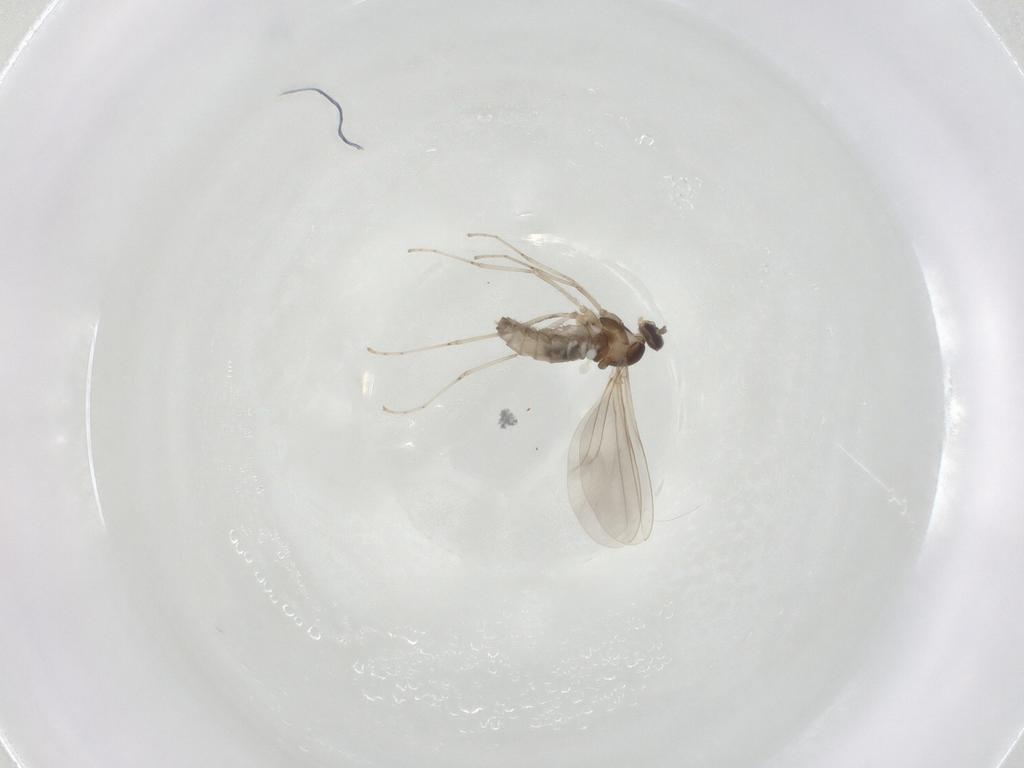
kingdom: Animalia
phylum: Arthropoda
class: Insecta
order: Diptera
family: Cecidomyiidae
